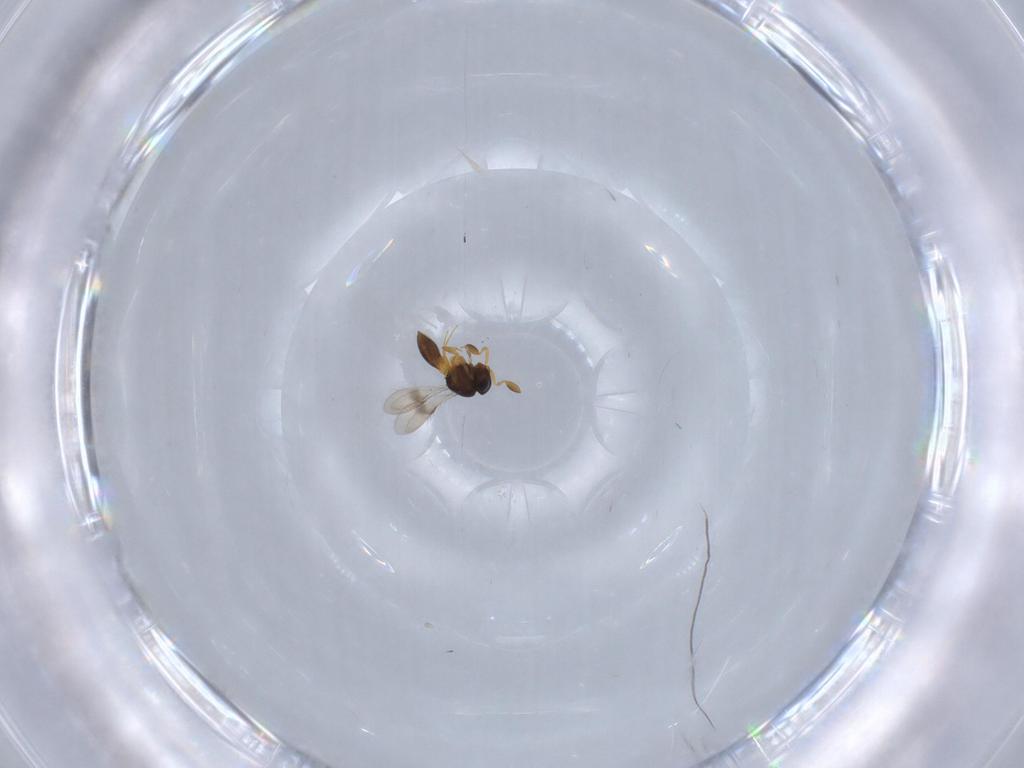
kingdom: Animalia
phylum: Arthropoda
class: Insecta
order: Hymenoptera
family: Scelionidae
